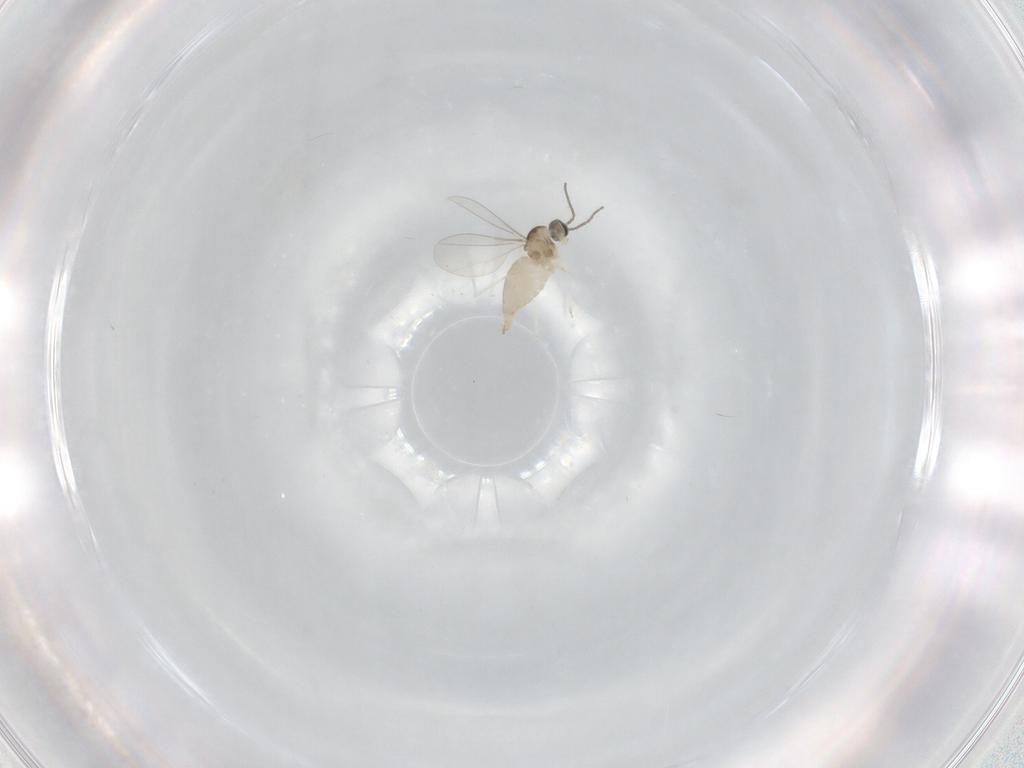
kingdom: Animalia
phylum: Arthropoda
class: Insecta
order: Diptera
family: Cecidomyiidae
